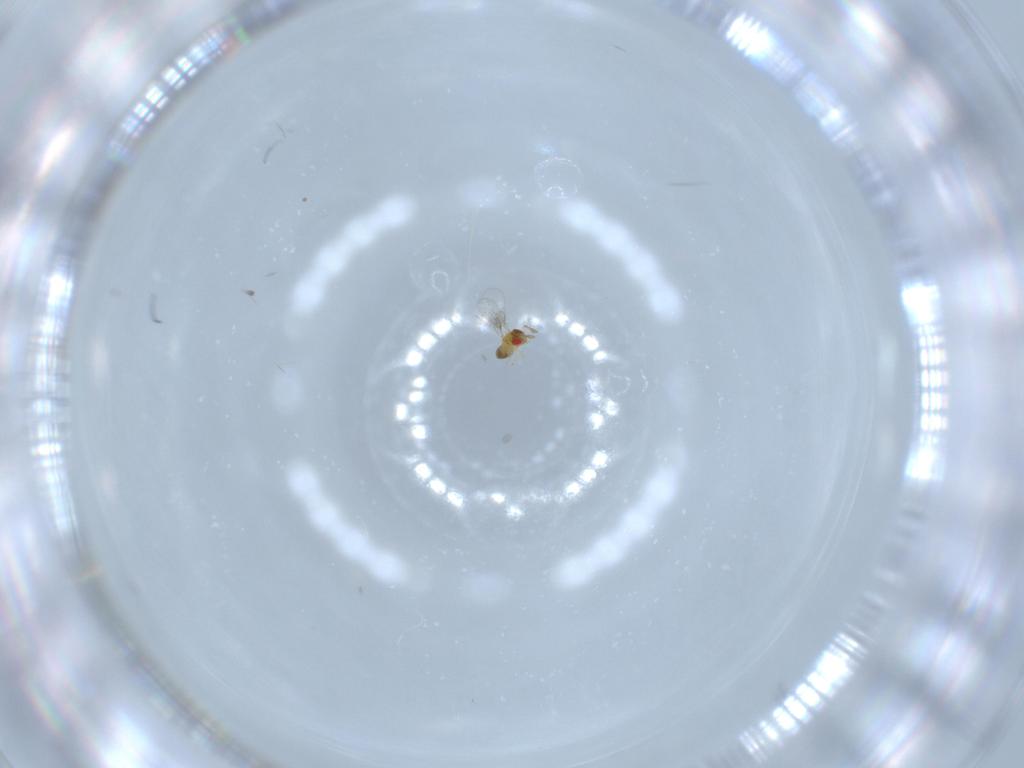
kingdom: Animalia
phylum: Arthropoda
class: Insecta
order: Hymenoptera
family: Trichogrammatidae
